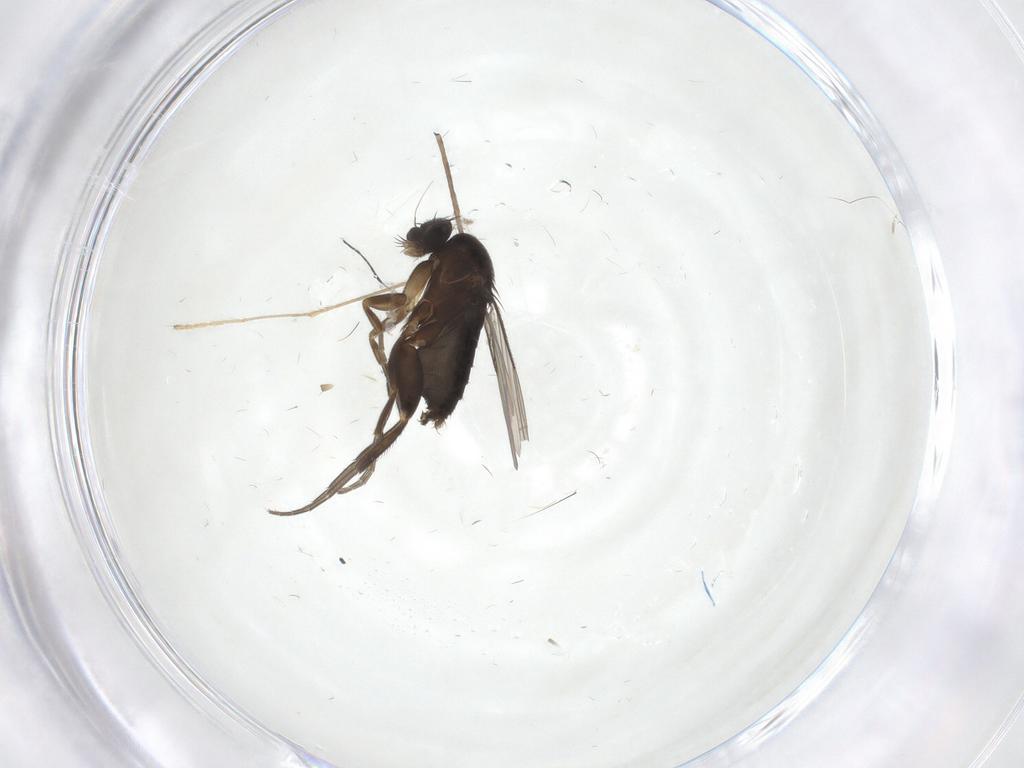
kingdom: Animalia
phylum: Arthropoda
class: Insecta
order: Diptera
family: Phoridae
